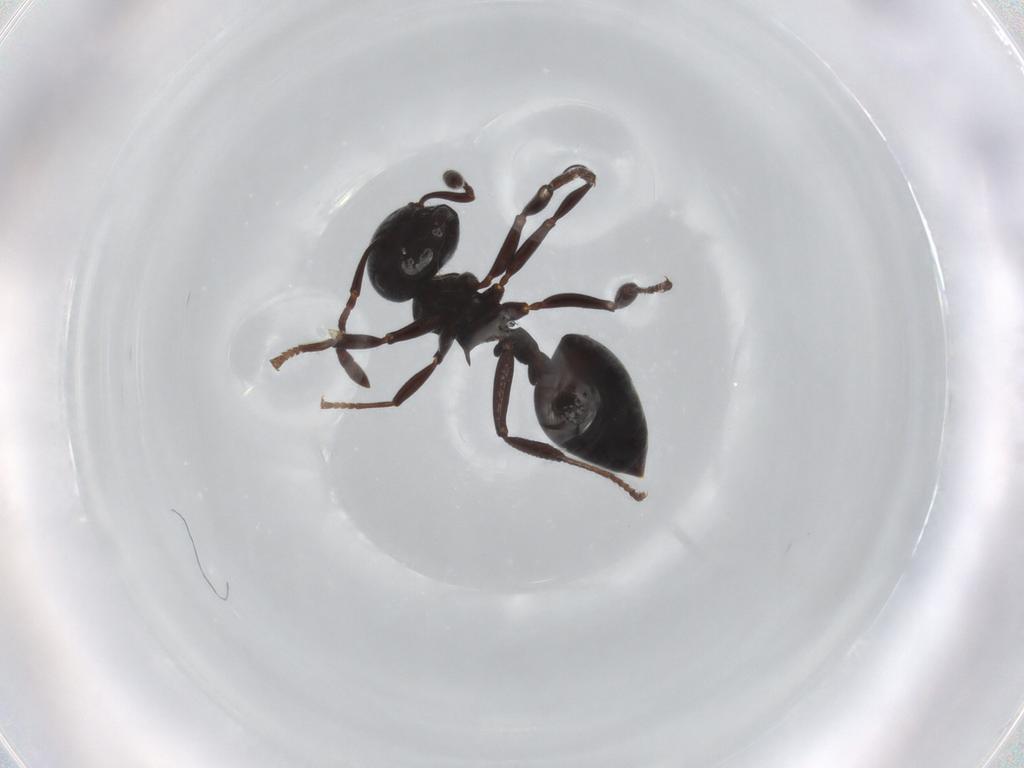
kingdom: Animalia
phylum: Arthropoda
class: Insecta
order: Hymenoptera
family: Formicidae
